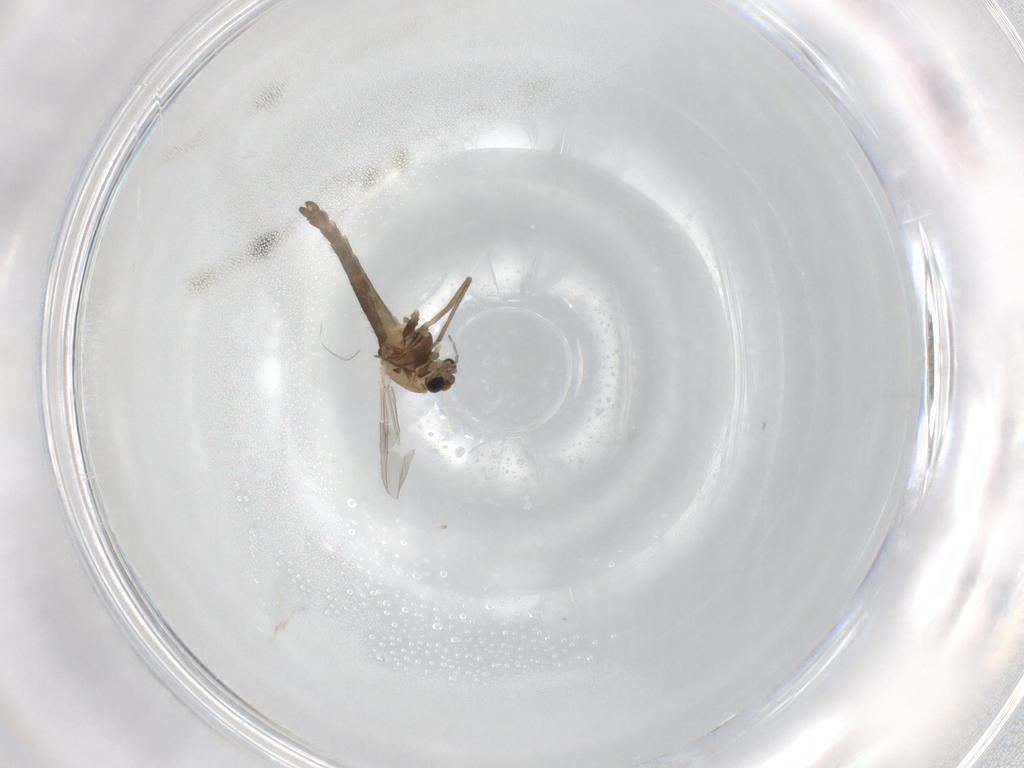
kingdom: Animalia
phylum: Arthropoda
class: Insecta
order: Diptera
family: Chironomidae
